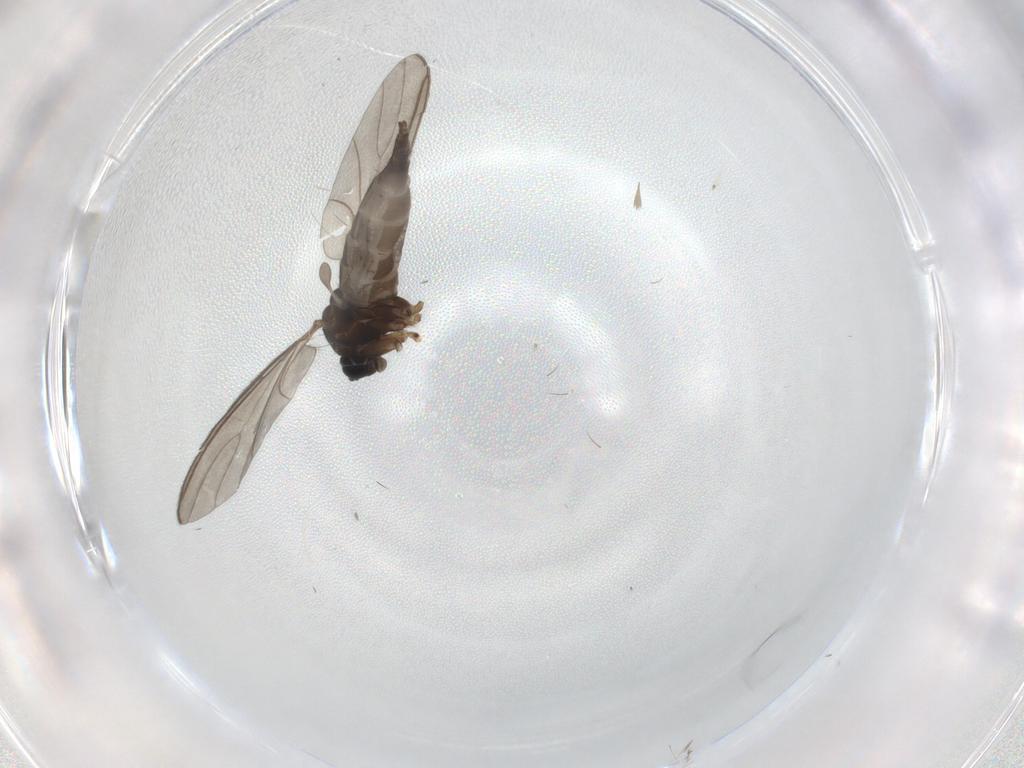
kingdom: Animalia
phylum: Arthropoda
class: Insecta
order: Diptera
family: Sciaridae
